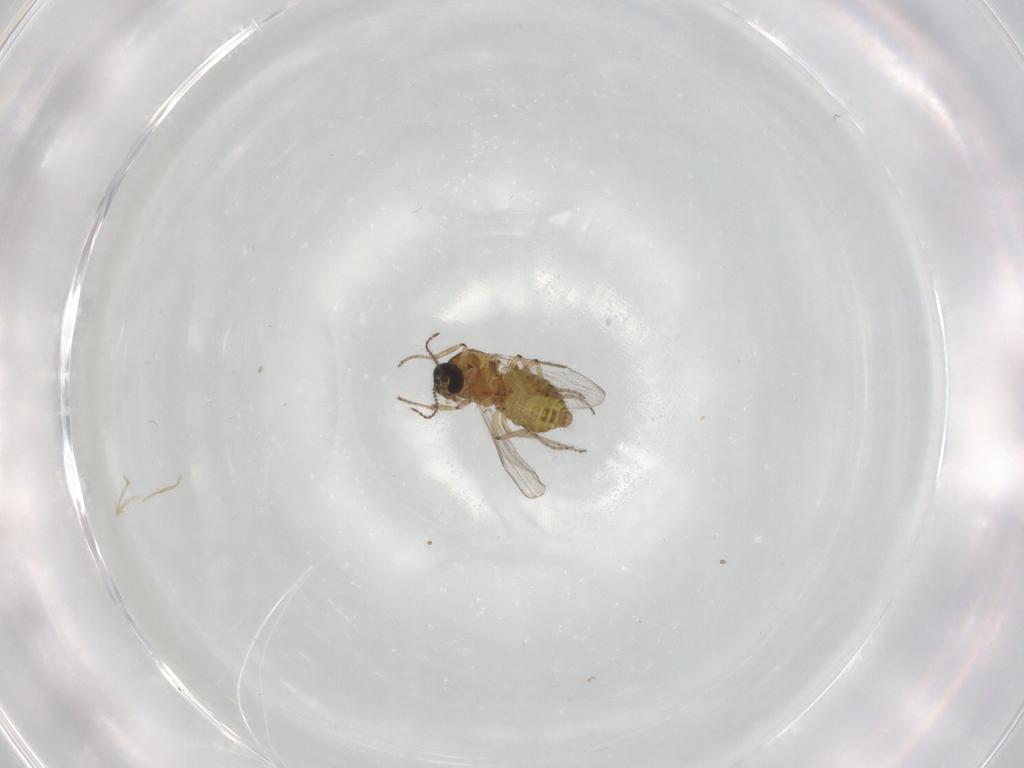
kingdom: Animalia
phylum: Arthropoda
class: Insecta
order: Diptera
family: Ceratopogonidae
